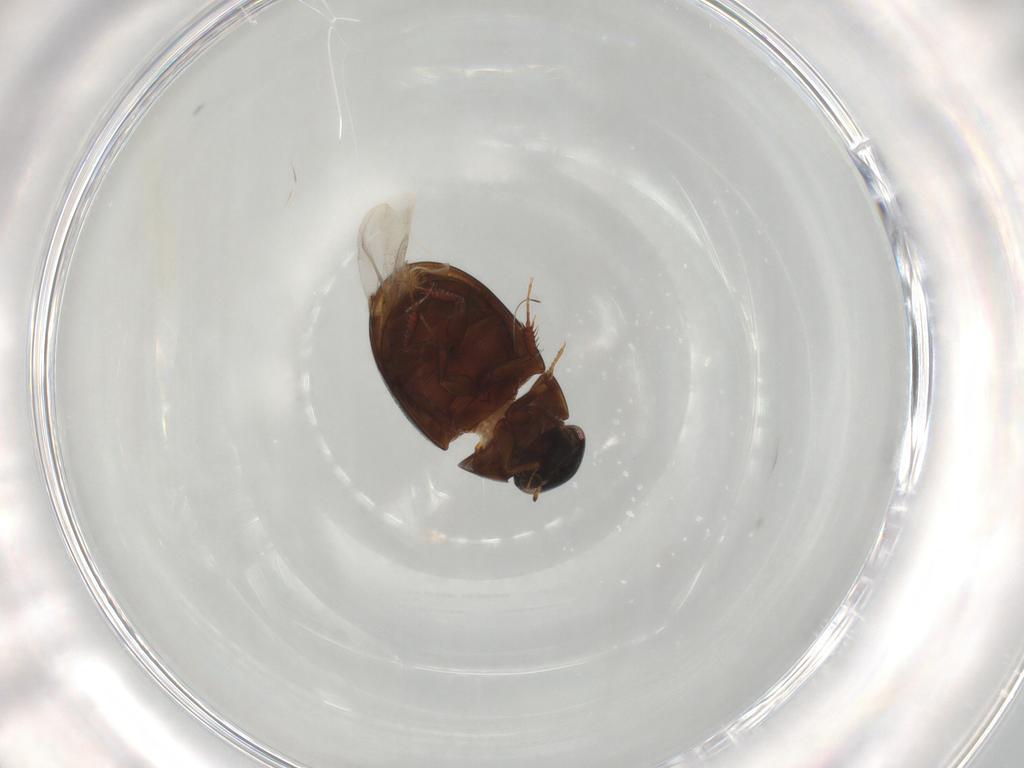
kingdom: Animalia
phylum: Arthropoda
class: Insecta
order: Coleoptera
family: Hydrophilidae
